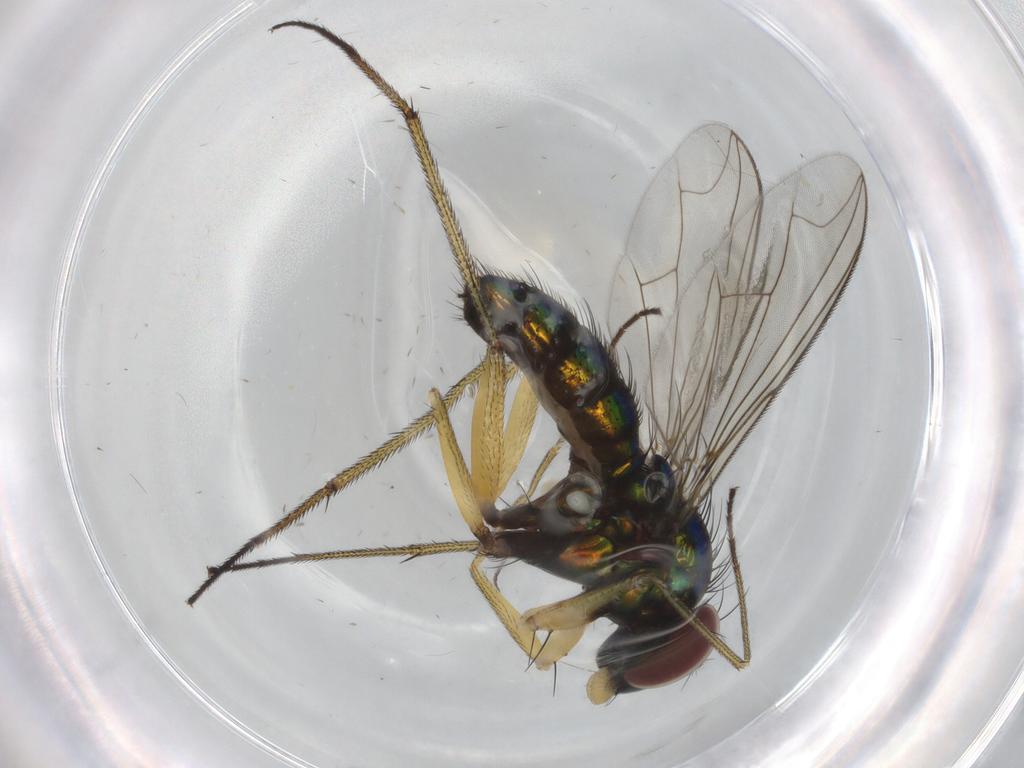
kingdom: Animalia
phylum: Arthropoda
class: Insecta
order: Diptera
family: Dolichopodidae
